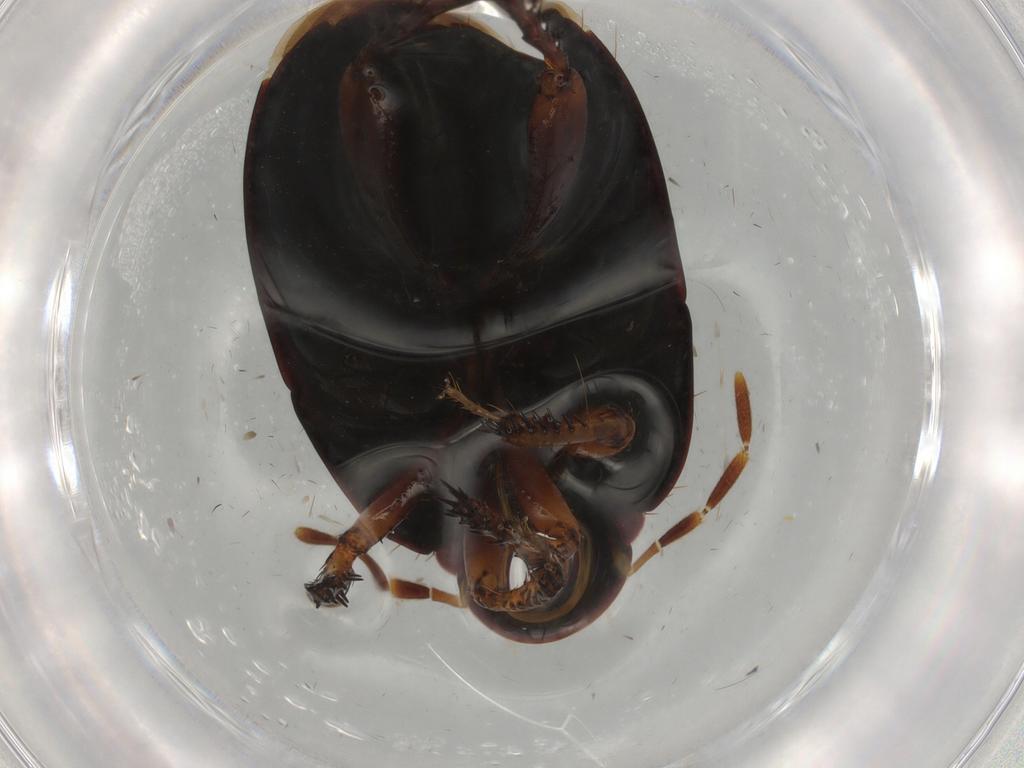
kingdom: Animalia
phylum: Arthropoda
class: Insecta
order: Hemiptera
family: Cydnidae
